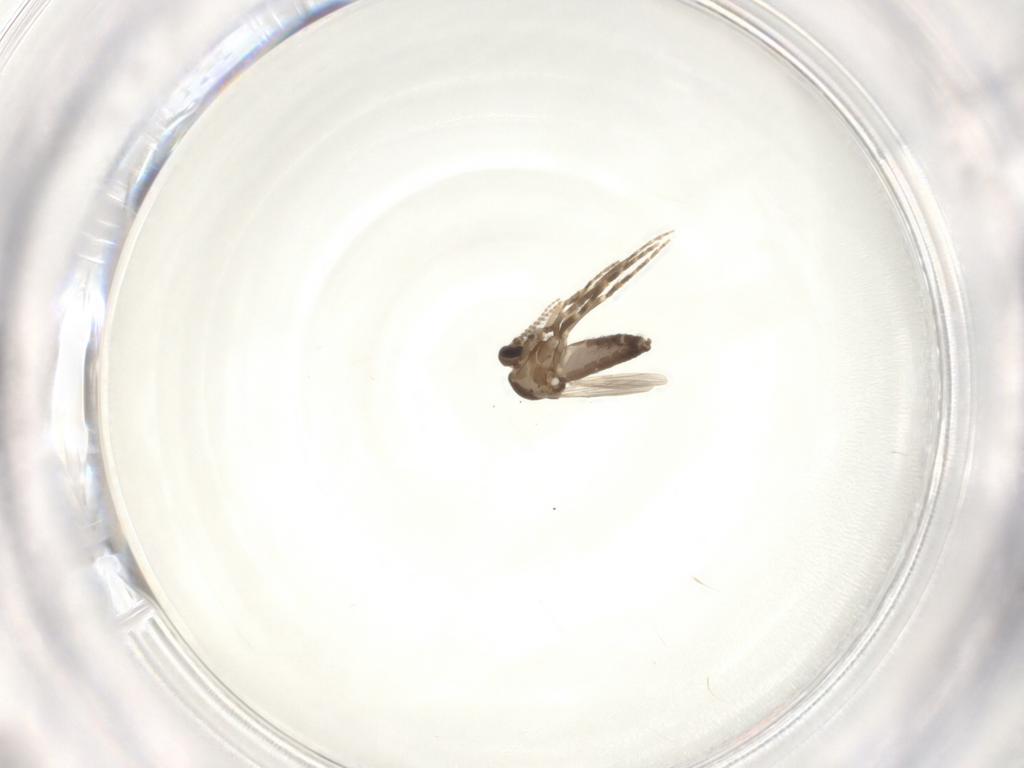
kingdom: Animalia
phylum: Arthropoda
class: Insecta
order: Diptera
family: Ceratopogonidae
